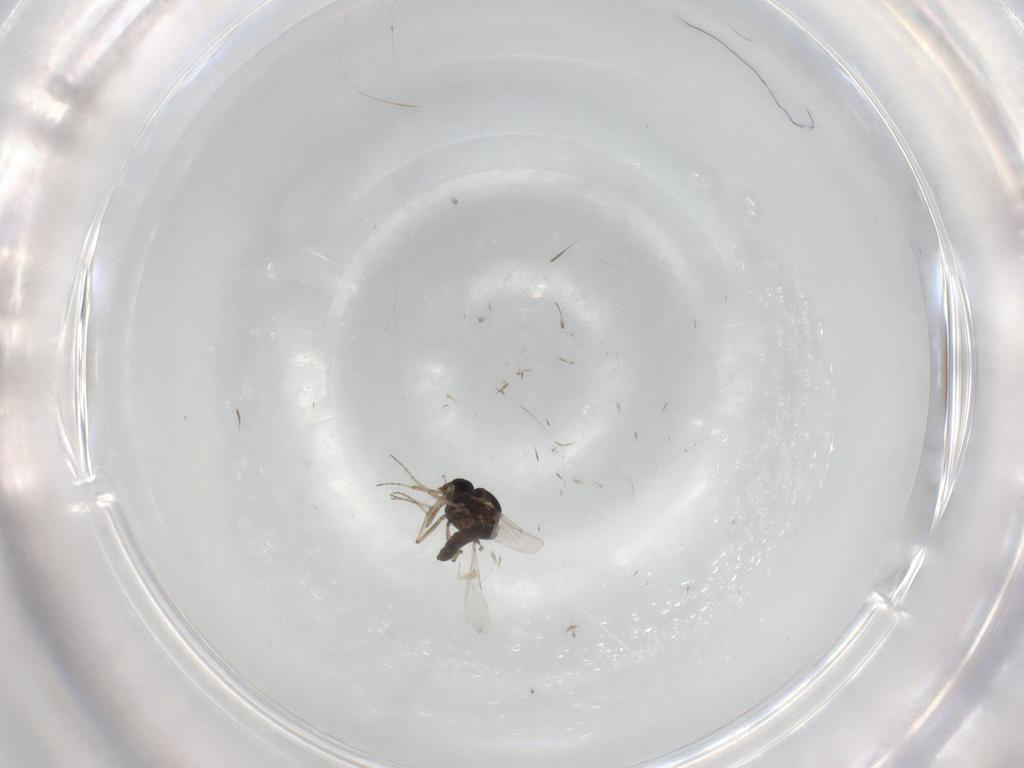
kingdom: Animalia
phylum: Arthropoda
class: Insecta
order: Diptera
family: Ceratopogonidae
